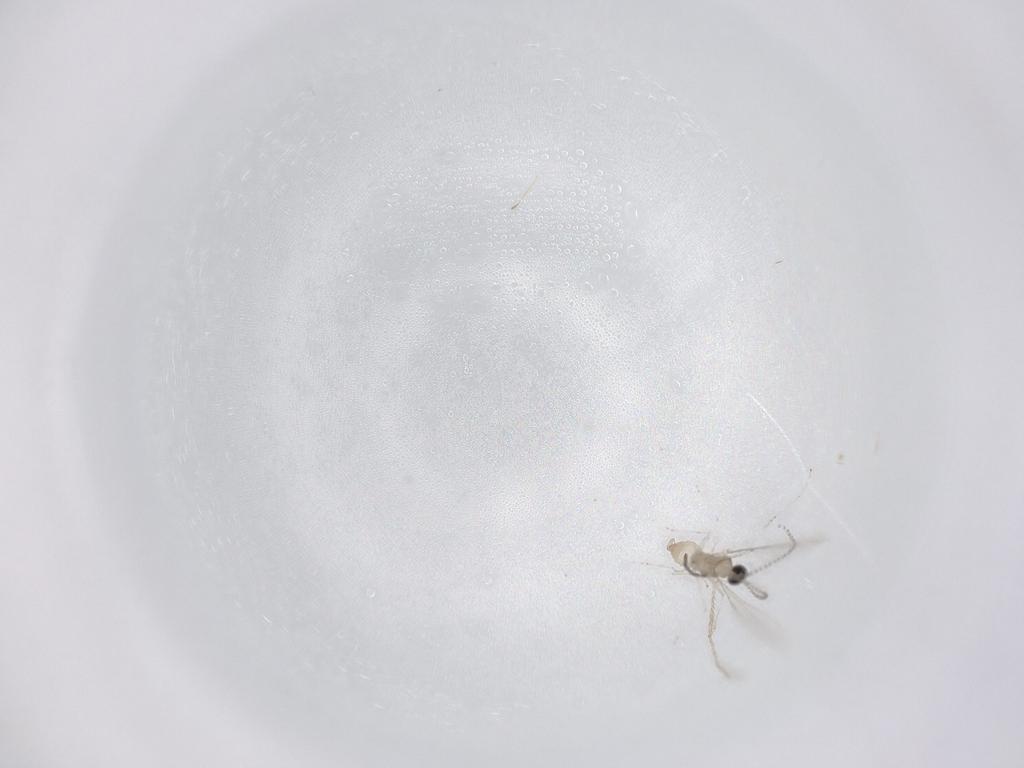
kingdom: Animalia
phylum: Arthropoda
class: Insecta
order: Diptera
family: Cecidomyiidae
